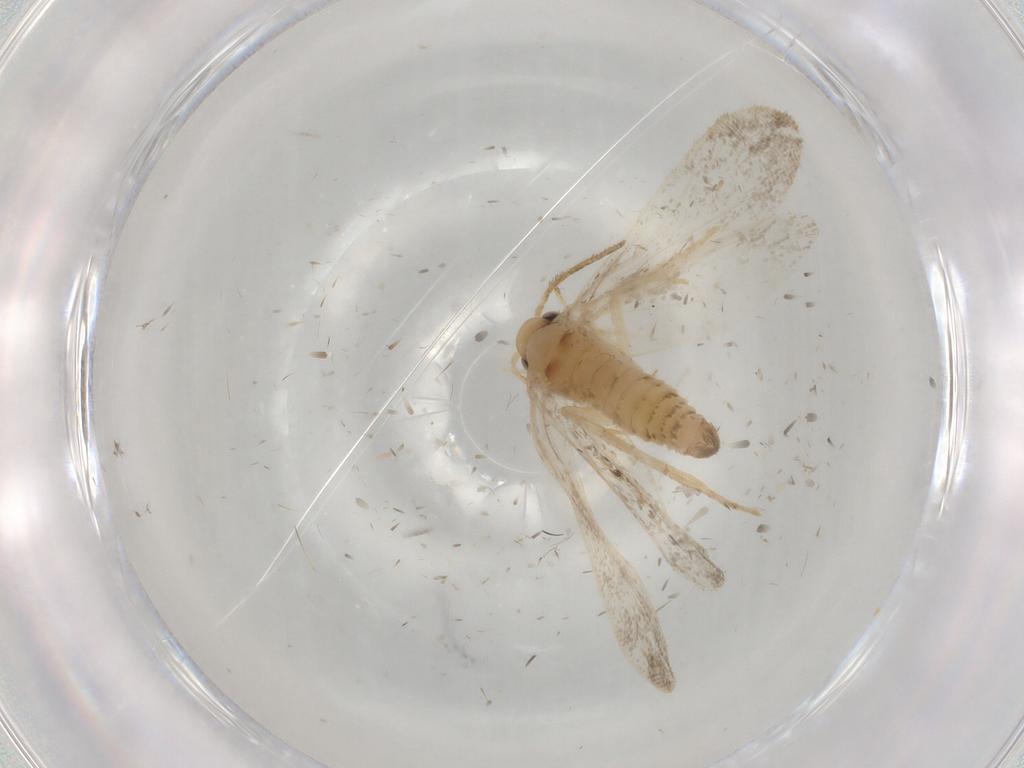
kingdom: Animalia
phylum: Arthropoda
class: Insecta
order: Lepidoptera
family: Psychidae
